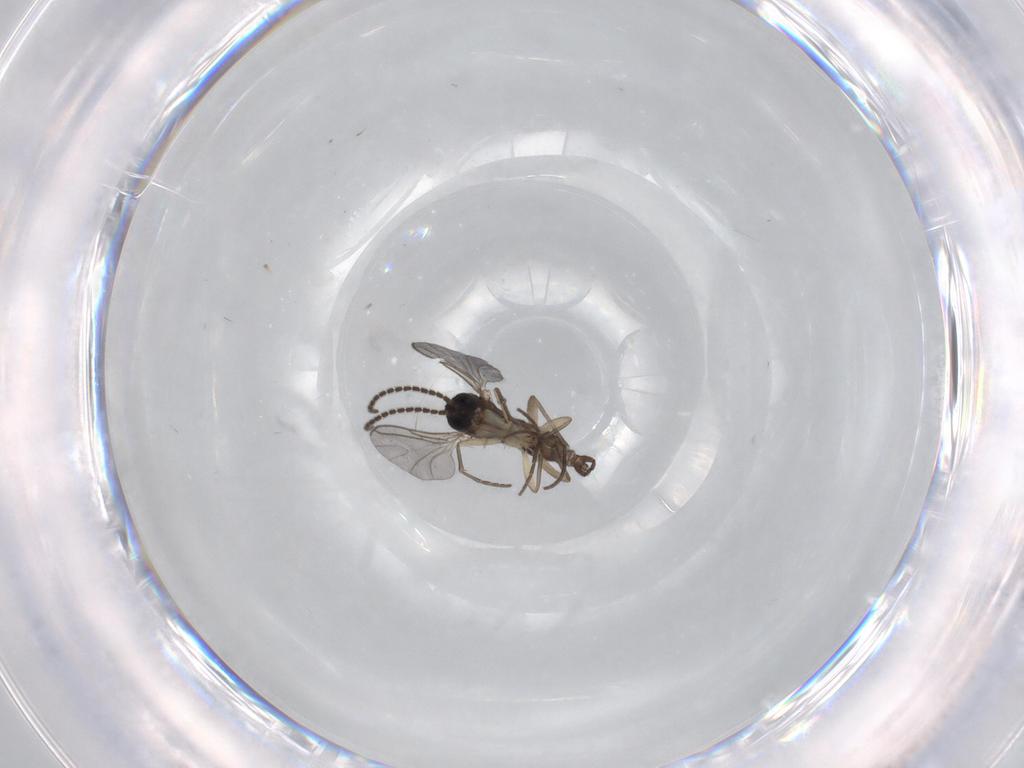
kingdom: Animalia
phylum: Arthropoda
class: Insecta
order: Diptera
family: Sciaridae
